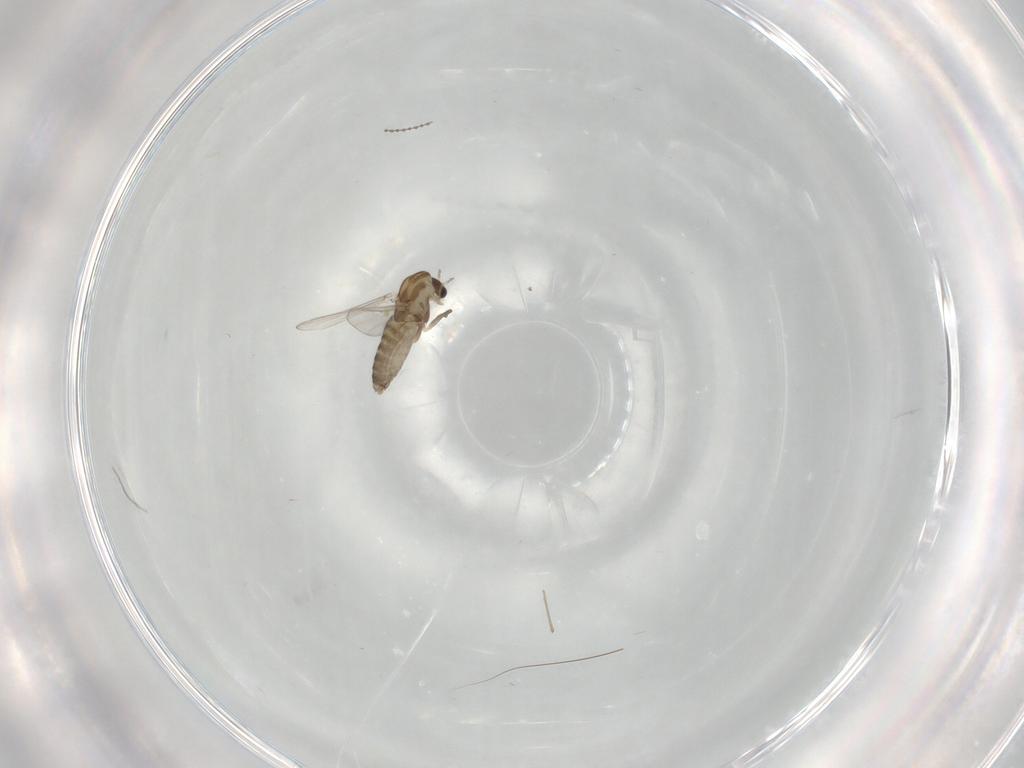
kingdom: Animalia
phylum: Arthropoda
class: Insecta
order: Diptera
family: Chironomidae
